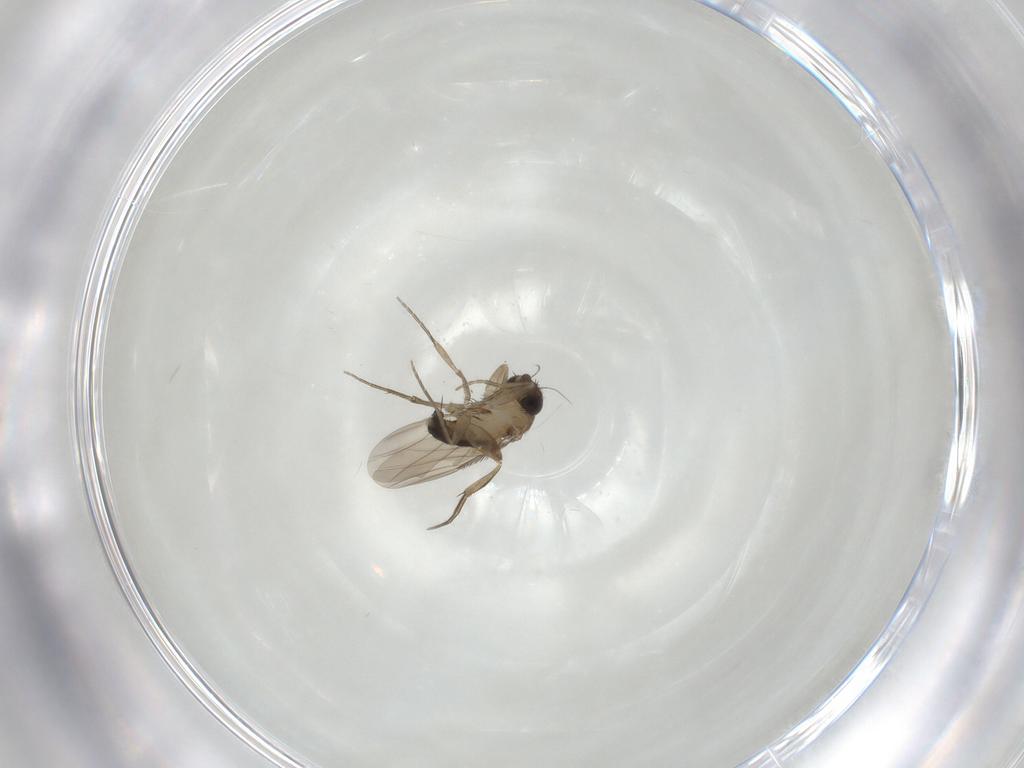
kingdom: Animalia
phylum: Arthropoda
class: Insecta
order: Diptera
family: Phoridae
